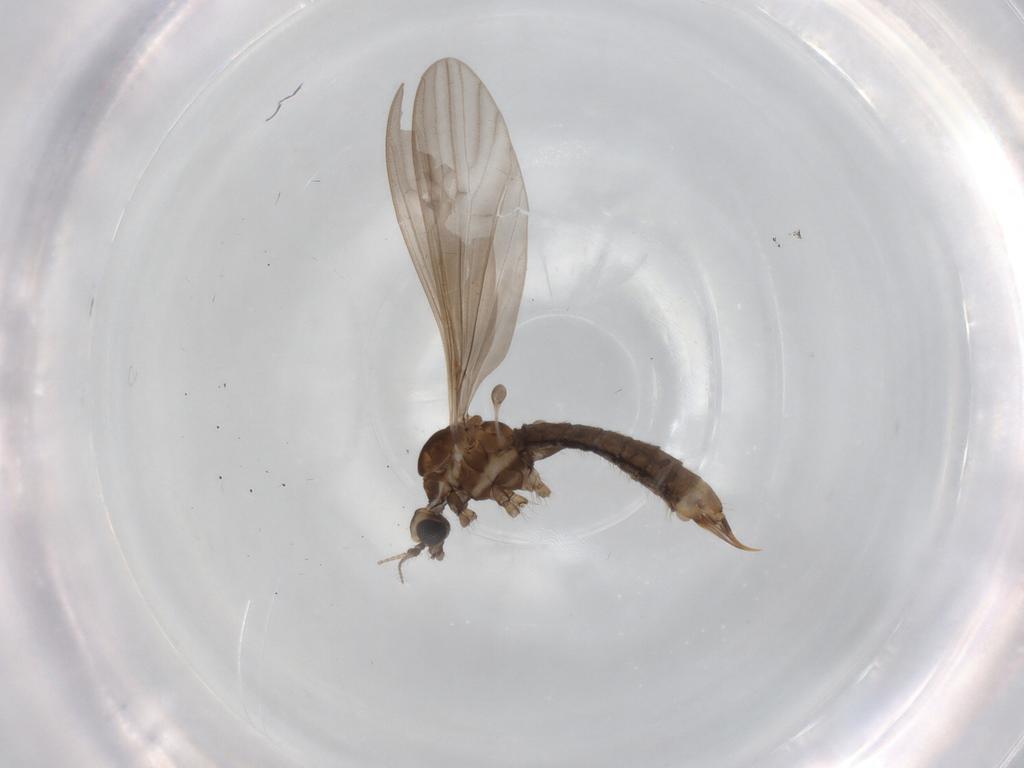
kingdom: Animalia
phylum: Arthropoda
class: Insecta
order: Diptera
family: Limoniidae
